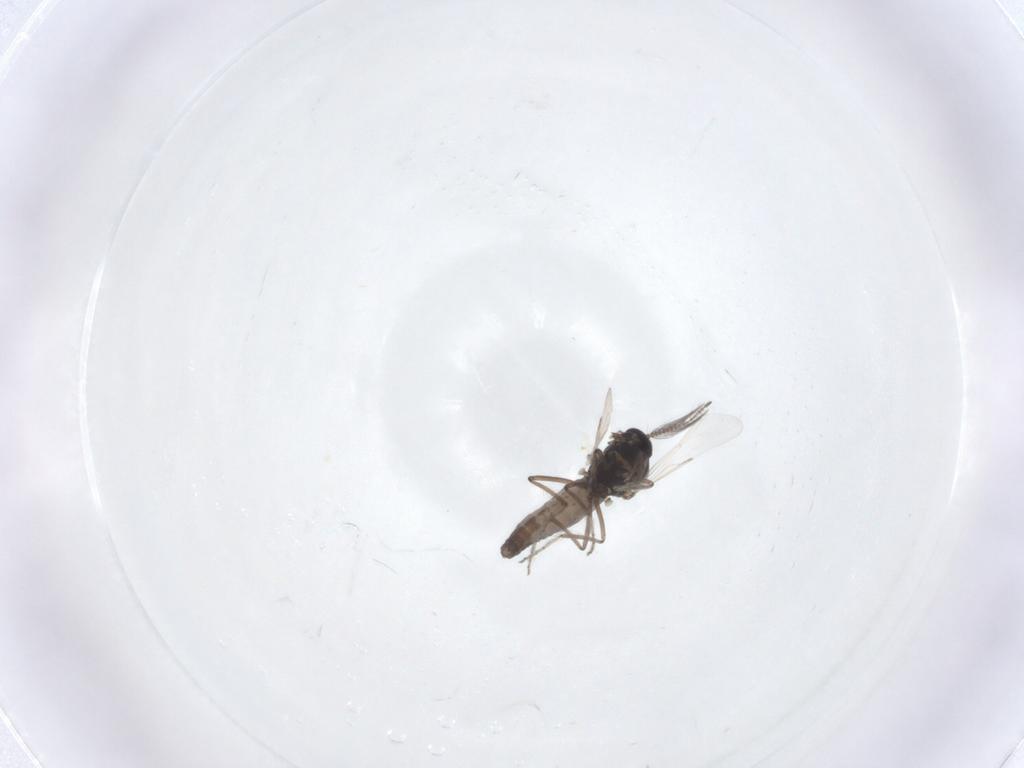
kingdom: Animalia
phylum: Arthropoda
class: Insecta
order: Diptera
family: Ceratopogonidae
